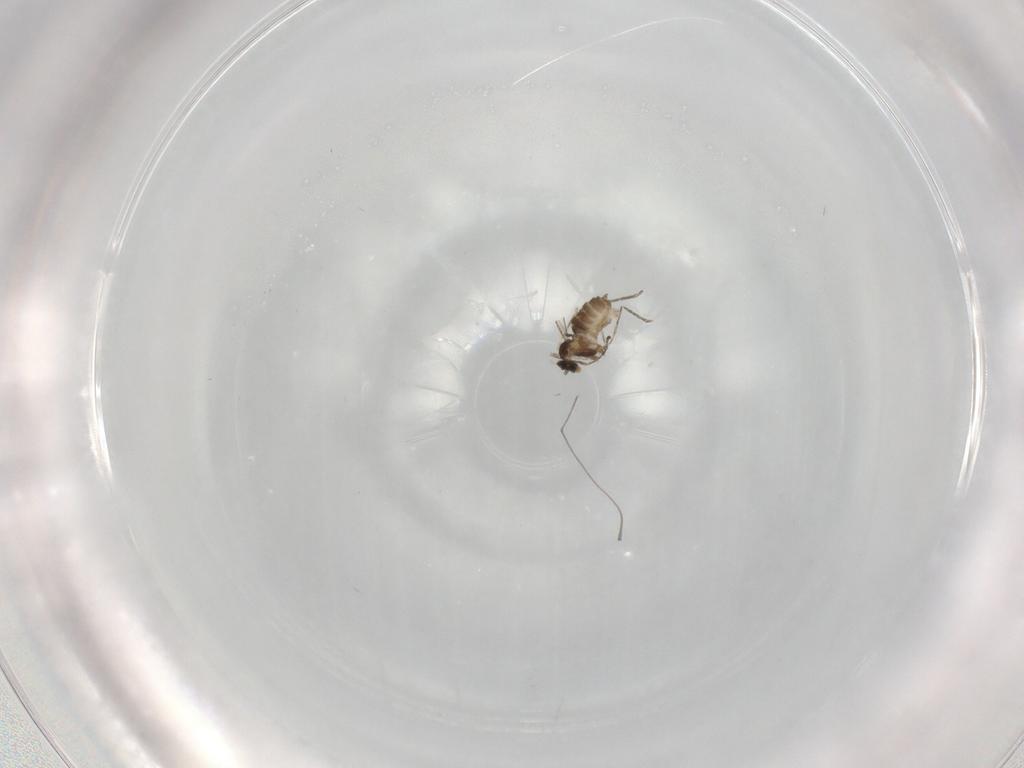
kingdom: Animalia
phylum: Arthropoda
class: Insecta
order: Diptera
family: Cecidomyiidae
